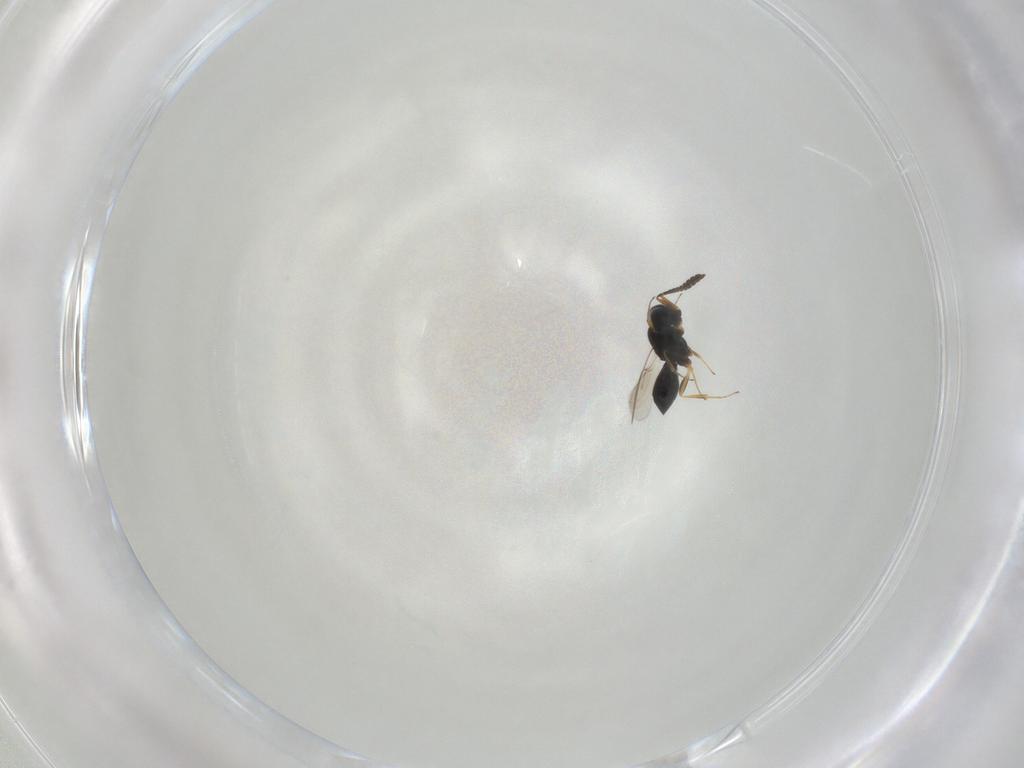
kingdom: Animalia
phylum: Arthropoda
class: Insecta
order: Hymenoptera
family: Scelionidae
